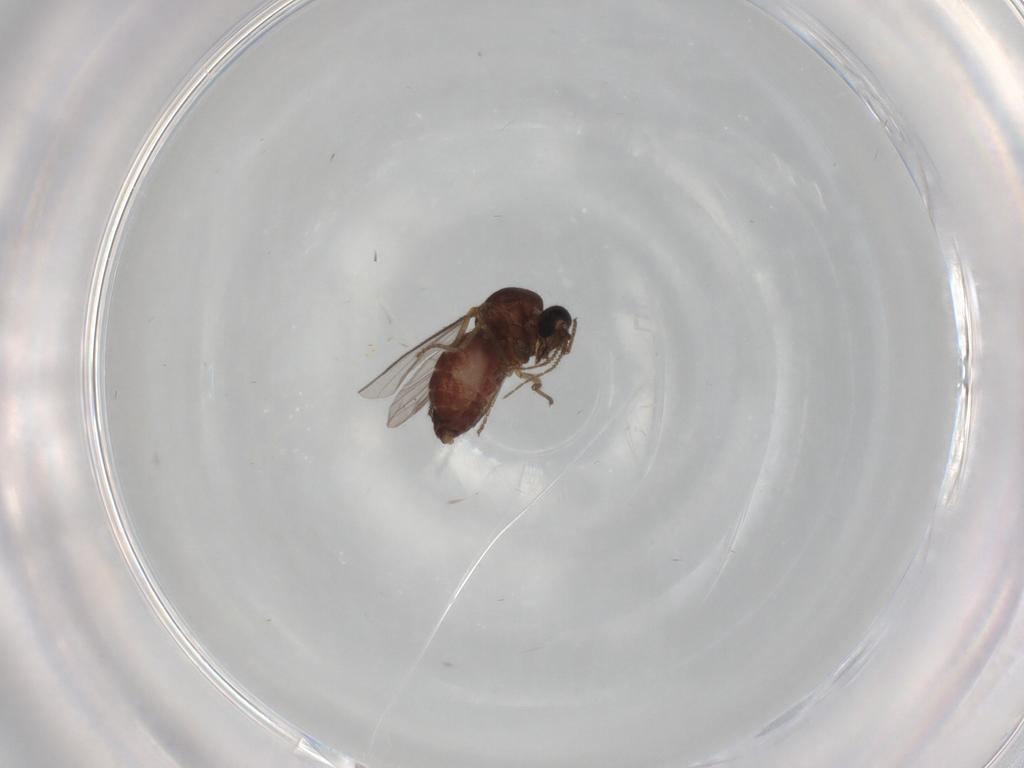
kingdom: Animalia
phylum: Arthropoda
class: Insecta
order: Diptera
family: Ceratopogonidae
